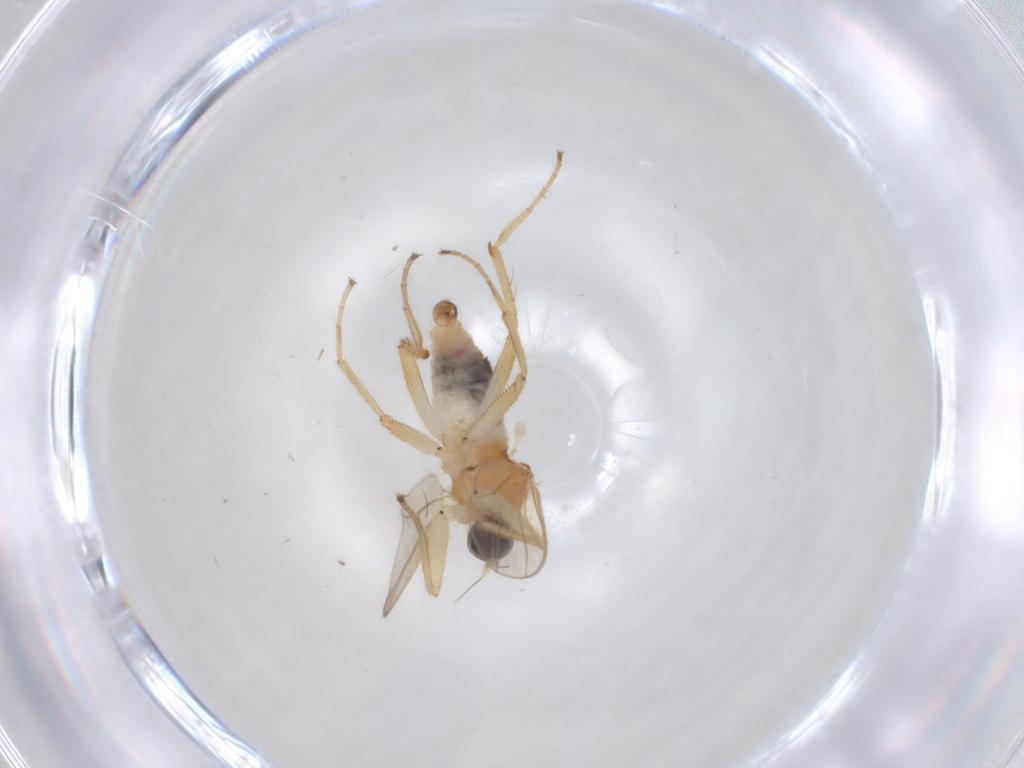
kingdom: Animalia
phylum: Arthropoda
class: Insecta
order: Diptera
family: Hybotidae
